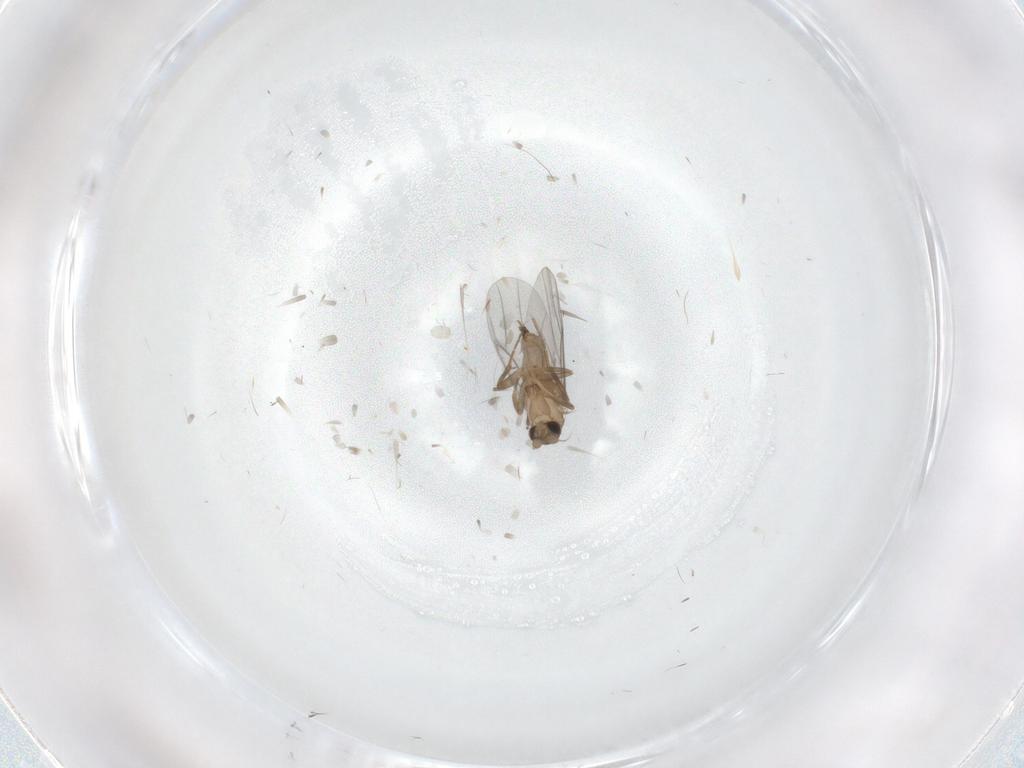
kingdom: Animalia
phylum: Arthropoda
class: Insecta
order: Diptera
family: Ceratopogonidae
